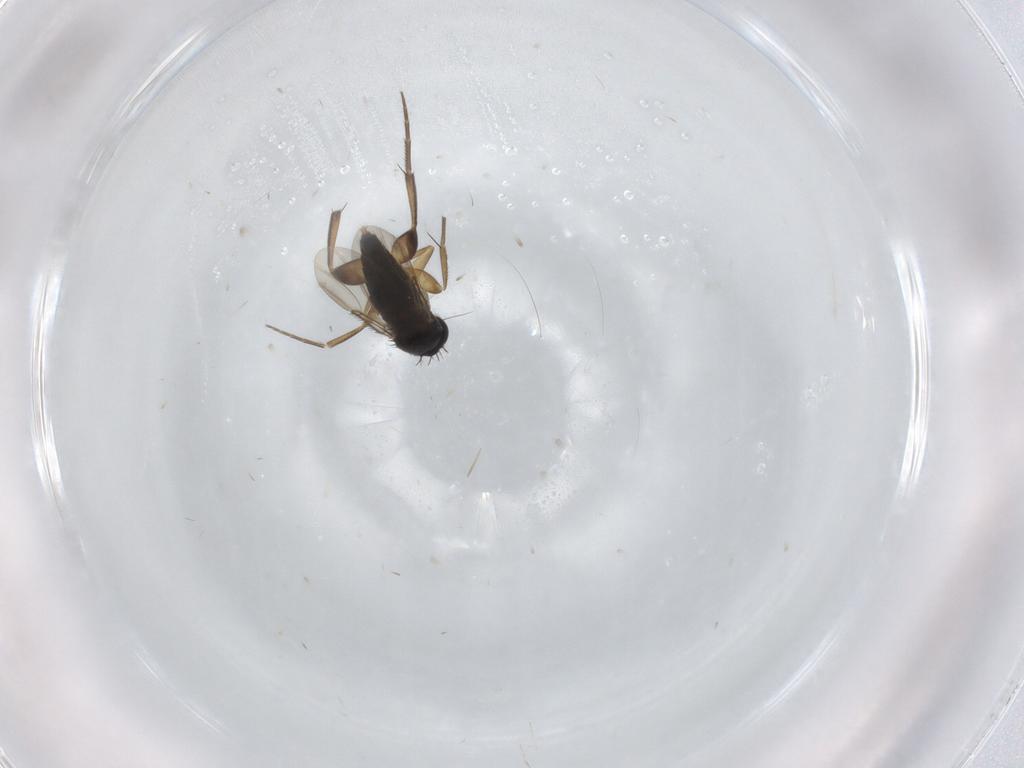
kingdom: Animalia
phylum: Arthropoda
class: Insecta
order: Diptera
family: Phoridae
